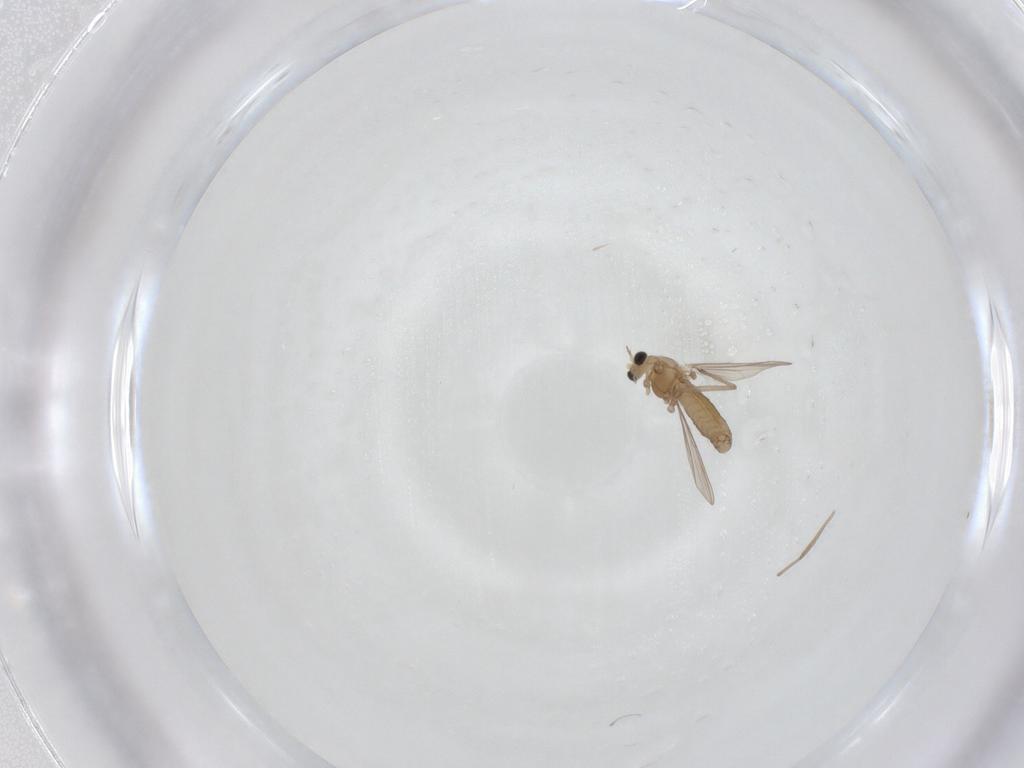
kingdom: Animalia
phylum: Arthropoda
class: Insecta
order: Diptera
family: Chironomidae
